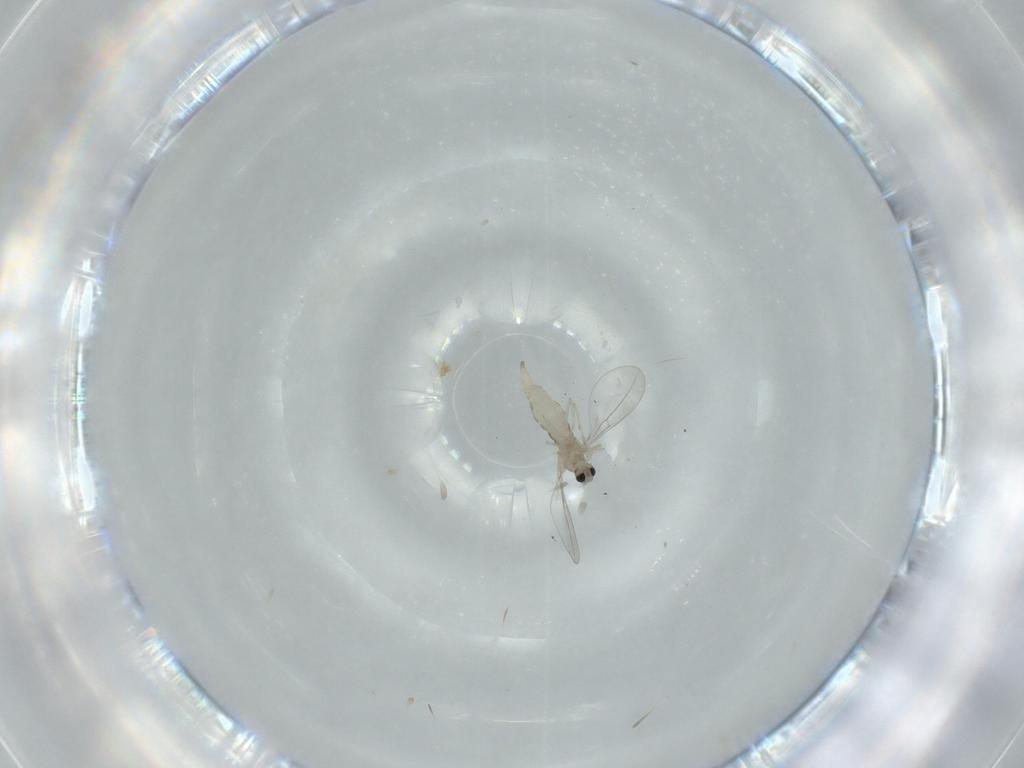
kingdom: Animalia
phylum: Arthropoda
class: Insecta
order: Diptera
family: Cecidomyiidae
